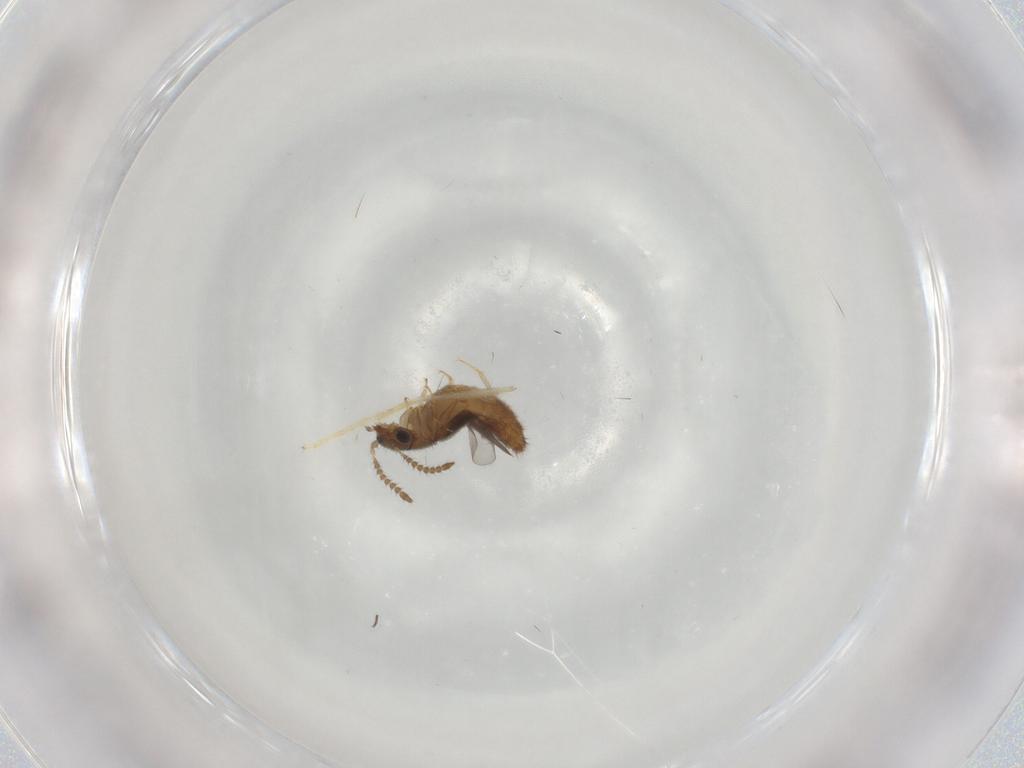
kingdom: Animalia
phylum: Arthropoda
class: Insecta
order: Coleoptera
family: Staphylinidae
